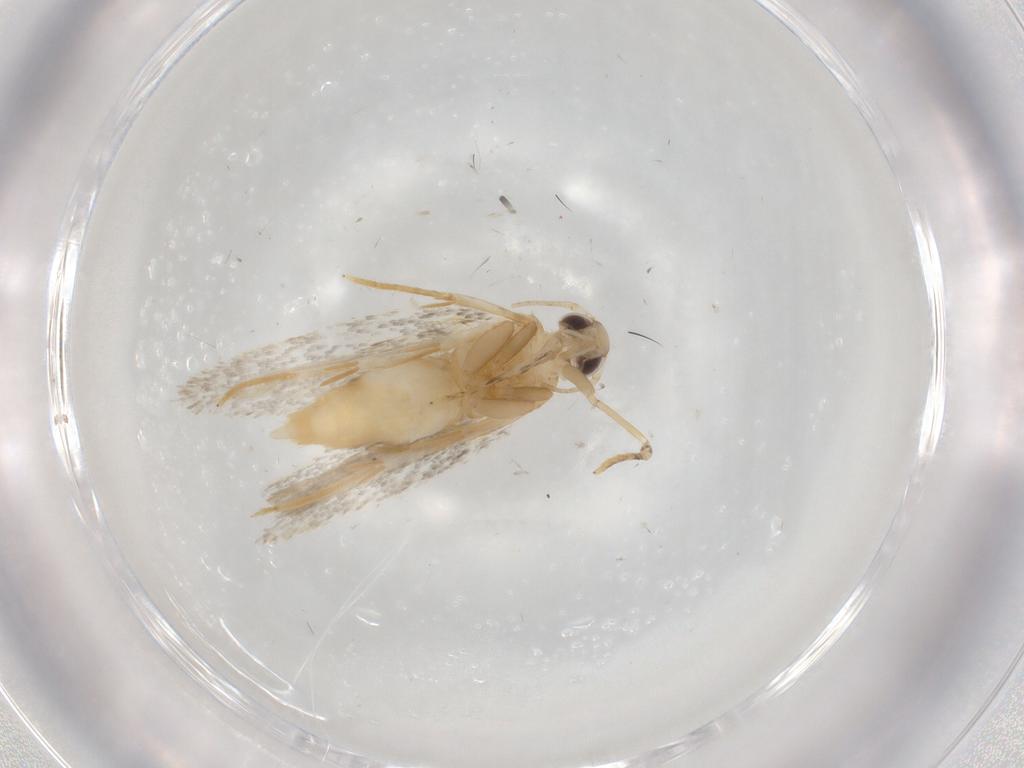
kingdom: Animalia
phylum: Arthropoda
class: Insecta
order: Lepidoptera
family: Autostichidae
